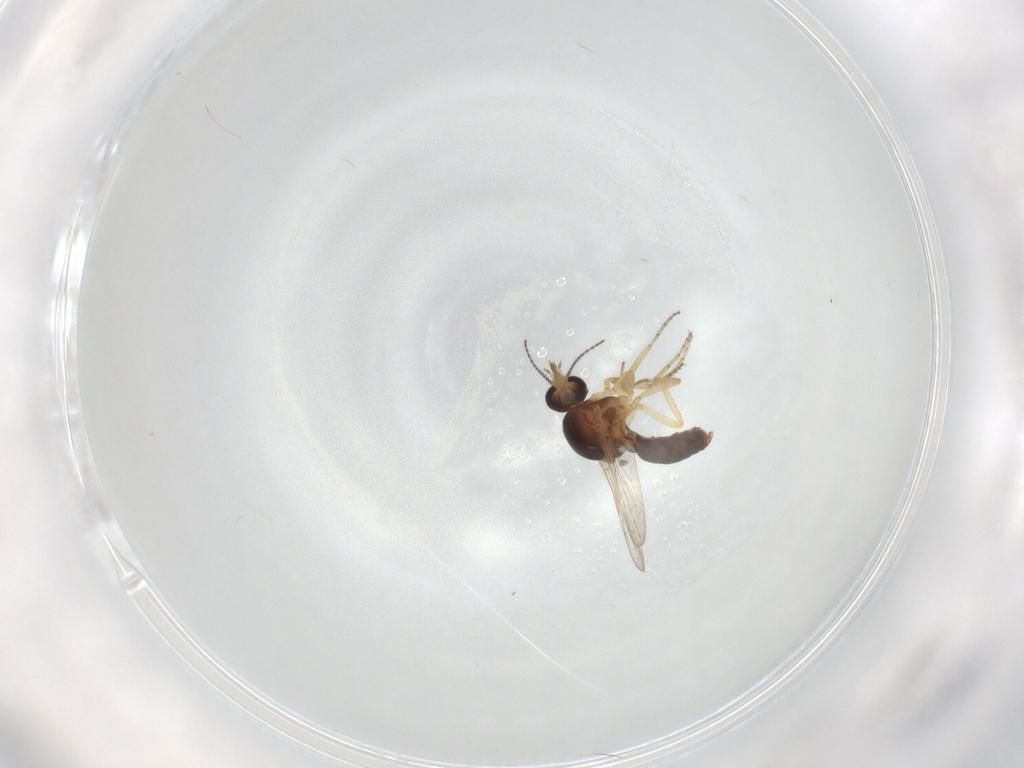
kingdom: Animalia
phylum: Arthropoda
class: Insecta
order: Diptera
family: Ceratopogonidae
